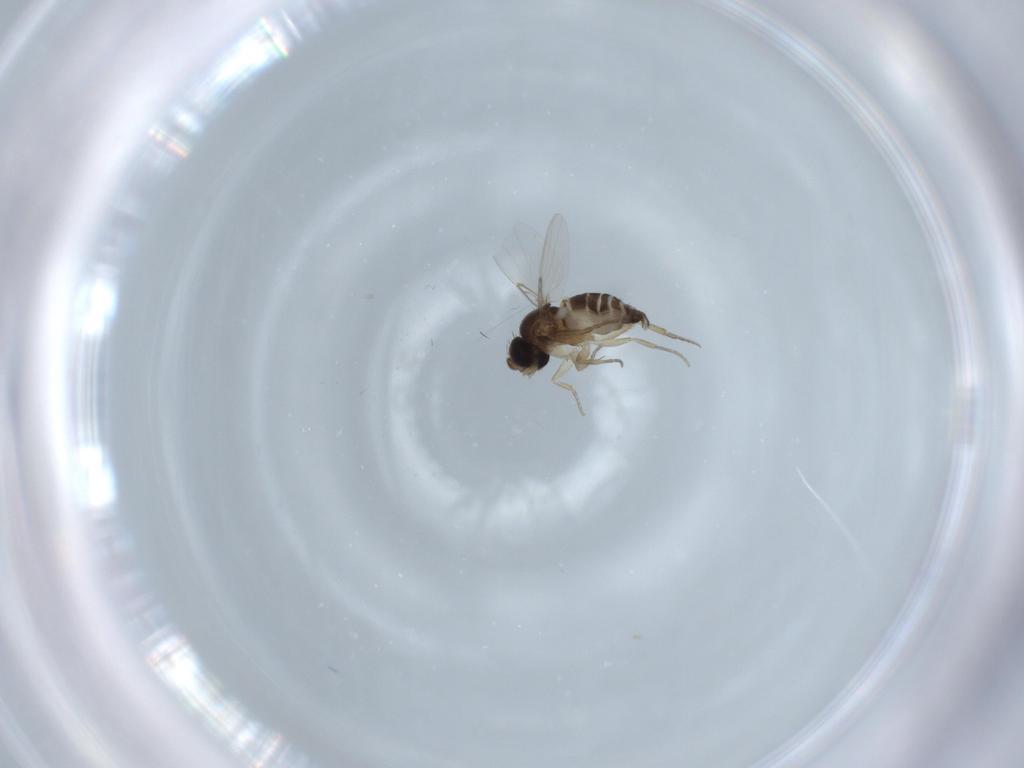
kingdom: Animalia
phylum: Arthropoda
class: Insecta
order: Diptera
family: Phoridae
